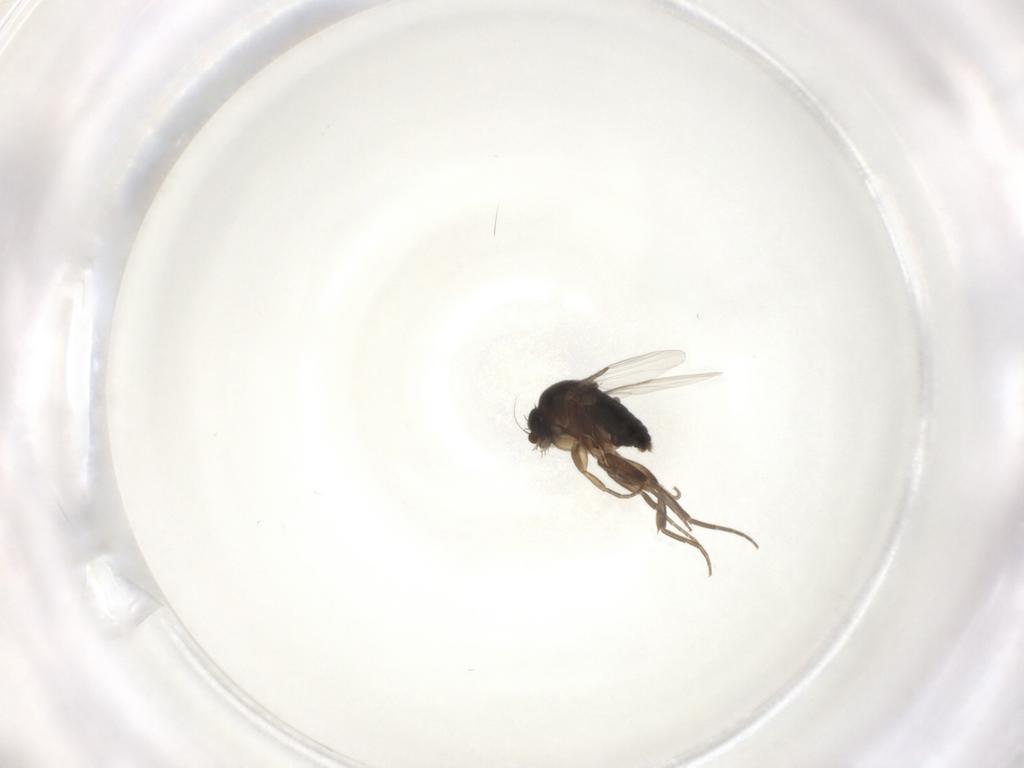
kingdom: Animalia
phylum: Arthropoda
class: Insecta
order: Diptera
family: Phoridae
